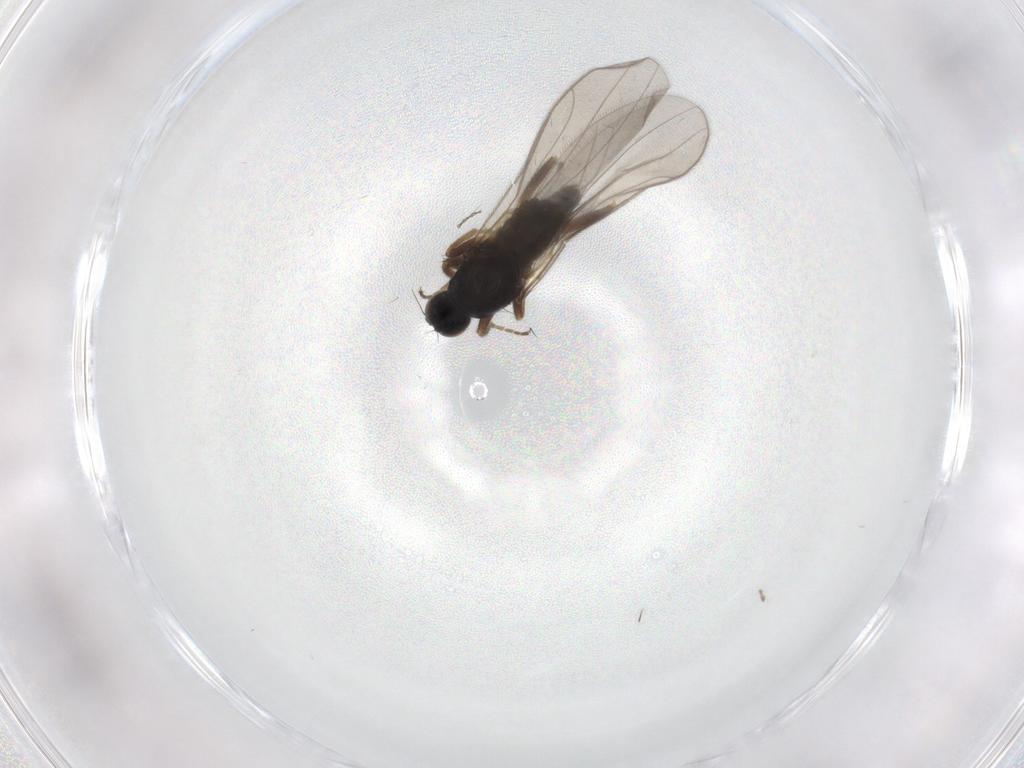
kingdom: Animalia
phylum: Arthropoda
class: Insecta
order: Diptera
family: Hybotidae
